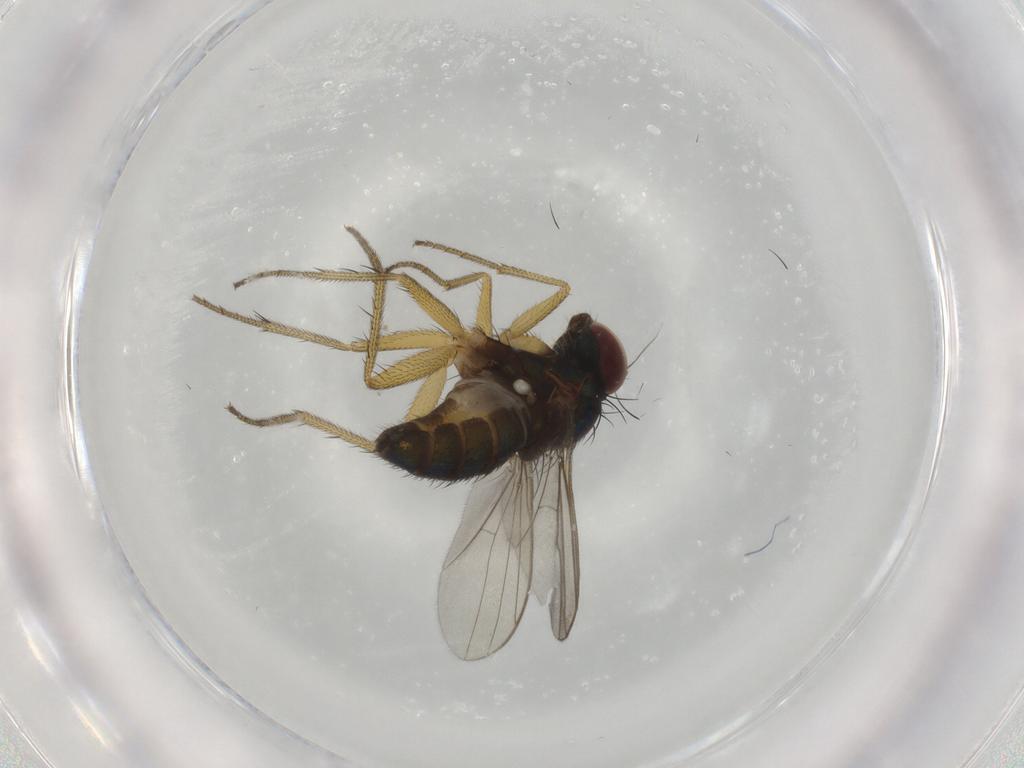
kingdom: Animalia
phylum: Arthropoda
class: Insecta
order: Diptera
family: Dolichopodidae
